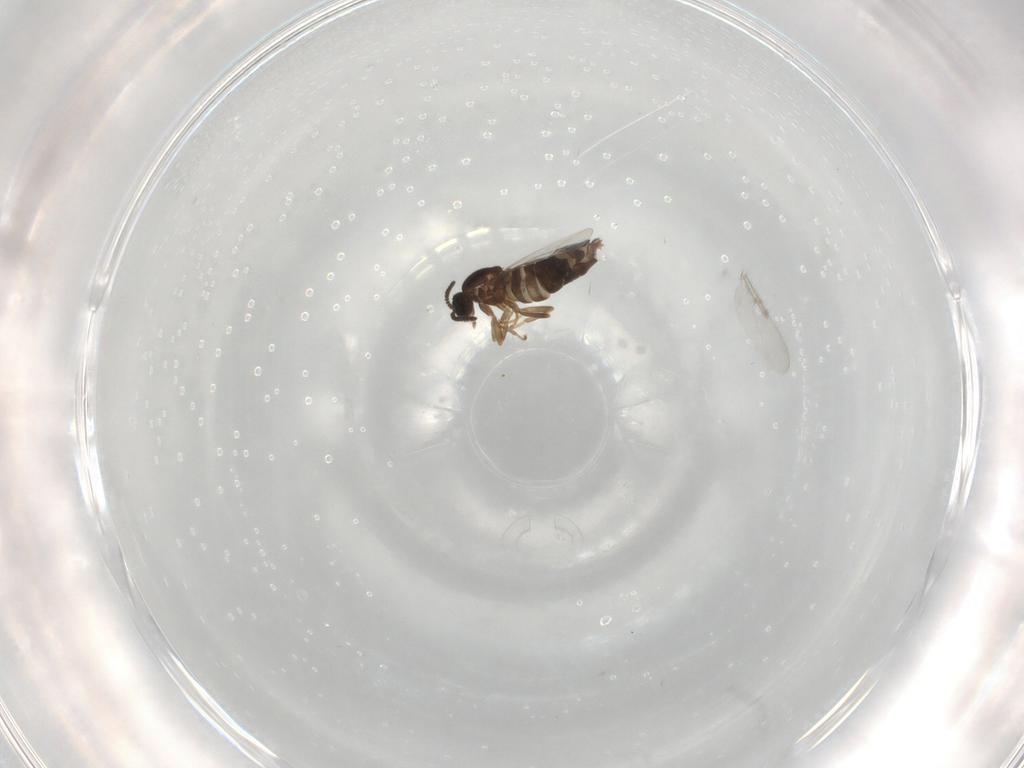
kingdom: Animalia
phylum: Arthropoda
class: Insecta
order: Diptera
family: Scatopsidae
